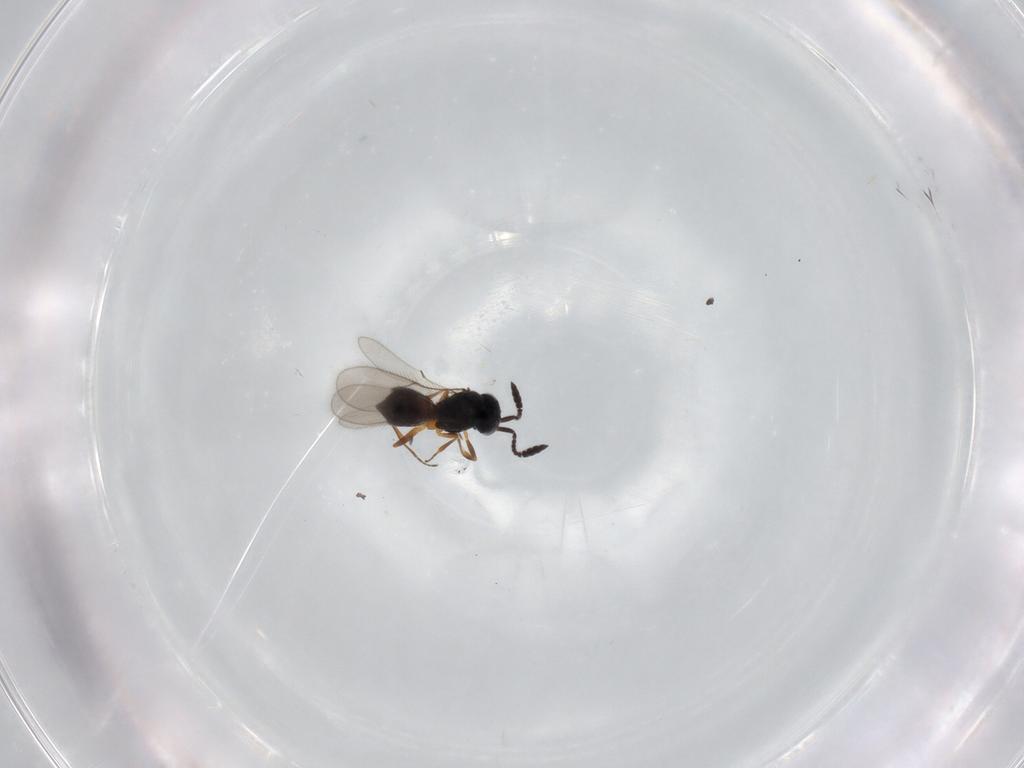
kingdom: Animalia
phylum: Arthropoda
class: Insecta
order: Hymenoptera
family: Scelionidae
